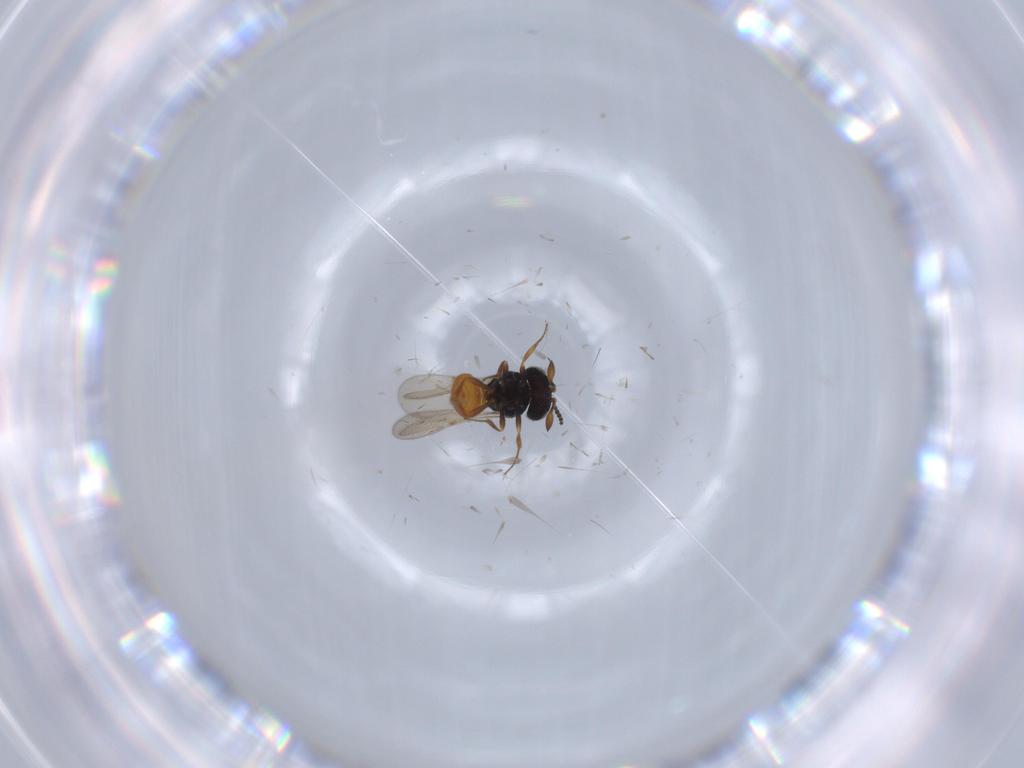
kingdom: Animalia
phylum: Arthropoda
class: Insecta
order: Hymenoptera
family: Scelionidae
